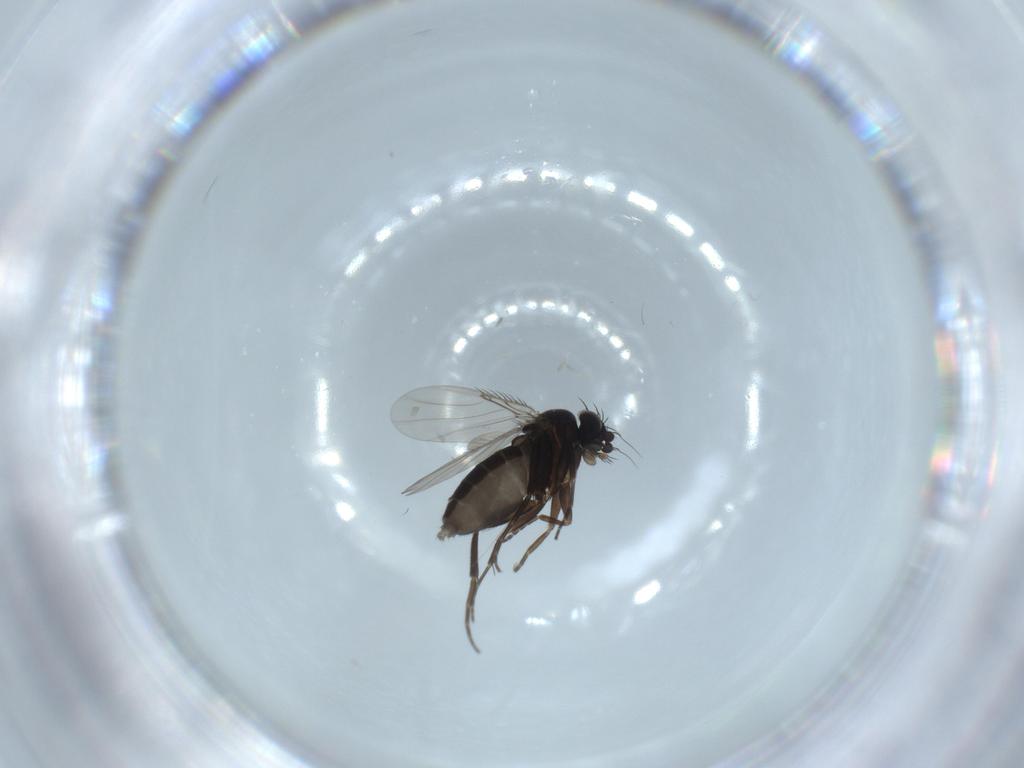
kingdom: Animalia
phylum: Arthropoda
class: Insecta
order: Diptera
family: Phoridae
